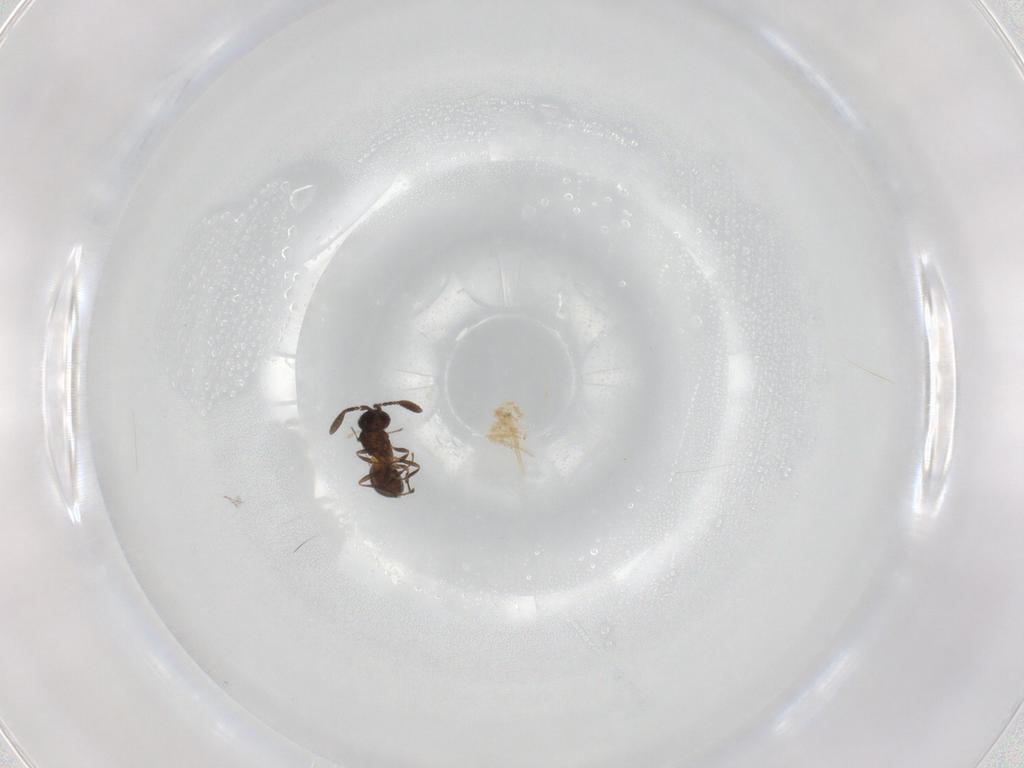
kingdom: Animalia
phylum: Arthropoda
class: Insecta
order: Hymenoptera
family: Scelionidae
